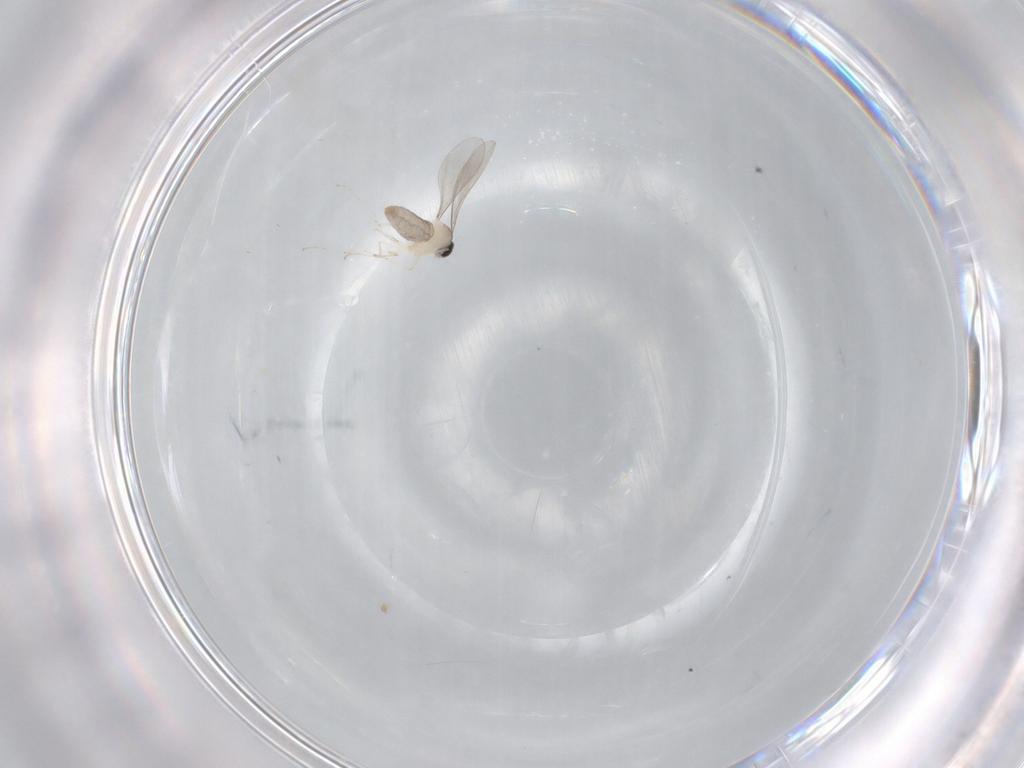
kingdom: Animalia
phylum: Arthropoda
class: Insecta
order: Diptera
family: Cecidomyiidae
